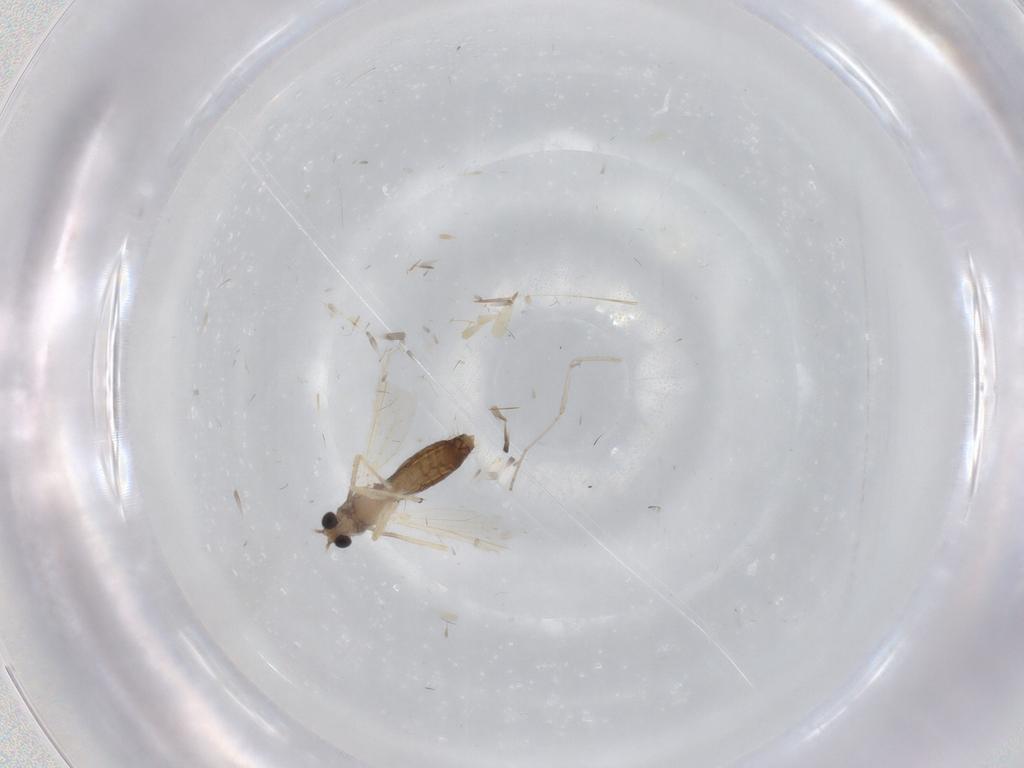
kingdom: Animalia
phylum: Arthropoda
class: Insecta
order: Diptera
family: Chironomidae
